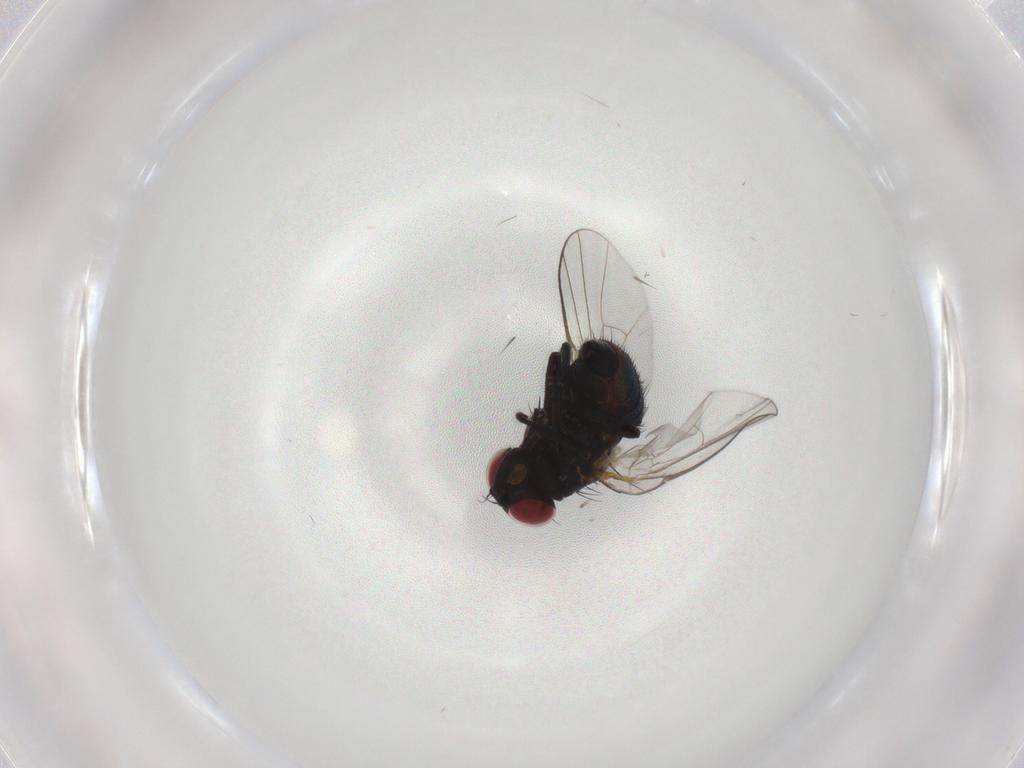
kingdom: Animalia
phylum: Arthropoda
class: Insecta
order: Diptera
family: Agromyzidae
